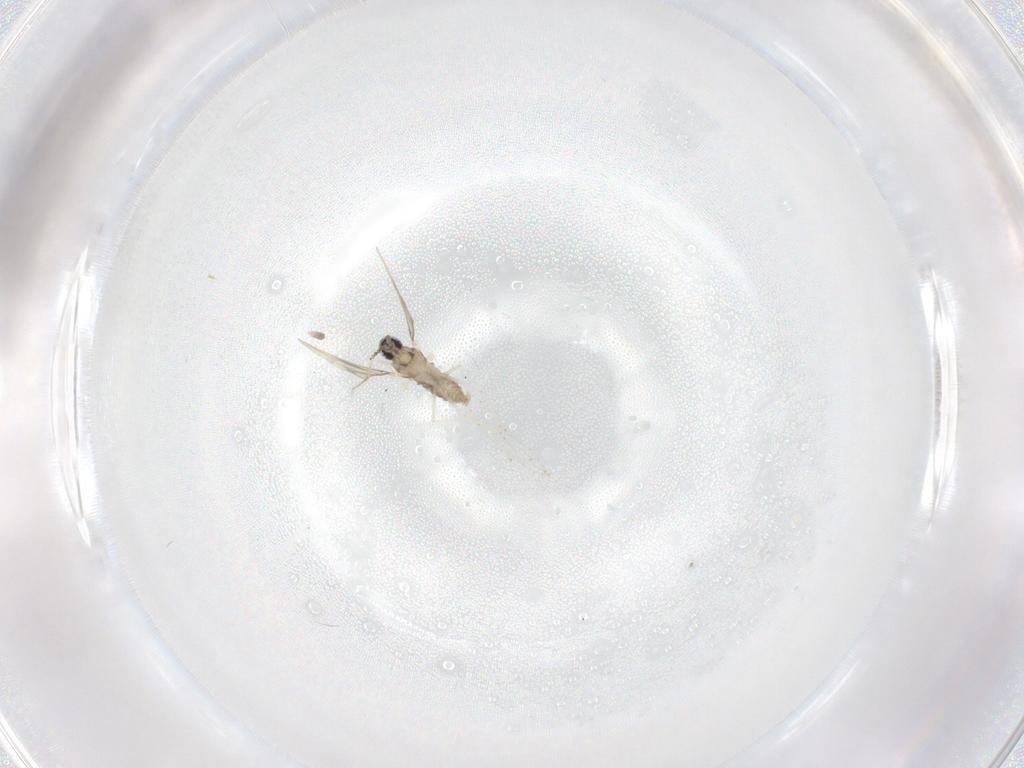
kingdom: Animalia
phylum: Arthropoda
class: Insecta
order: Diptera
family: Cecidomyiidae
